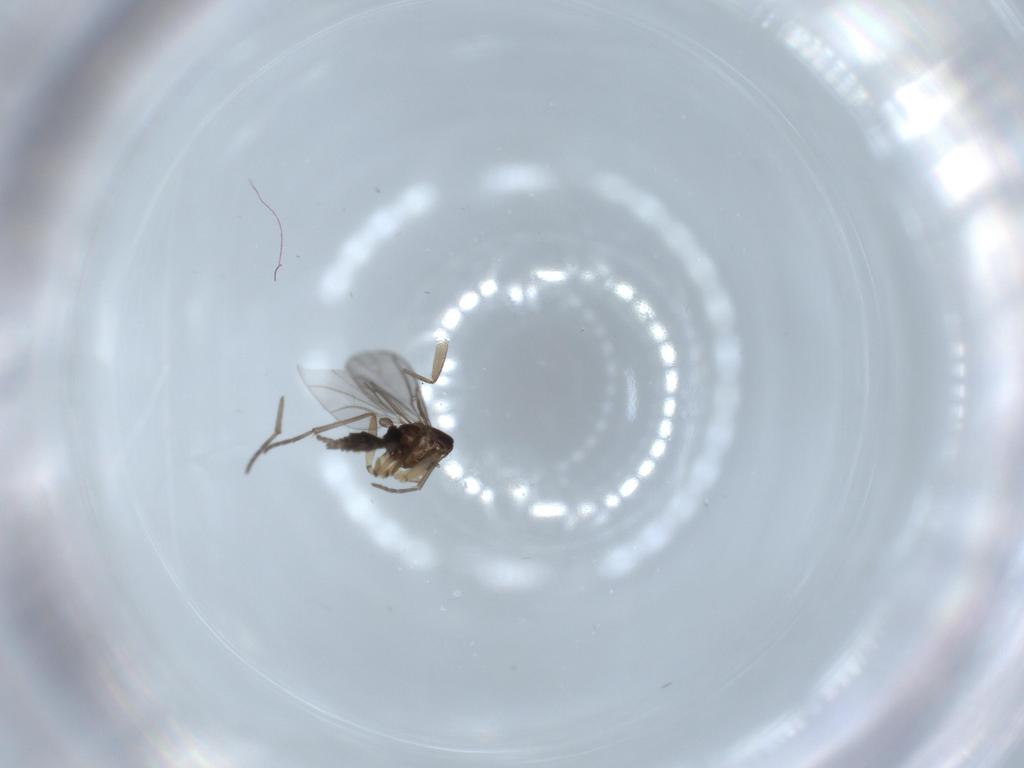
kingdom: Animalia
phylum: Arthropoda
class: Insecta
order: Diptera
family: Sciaridae
